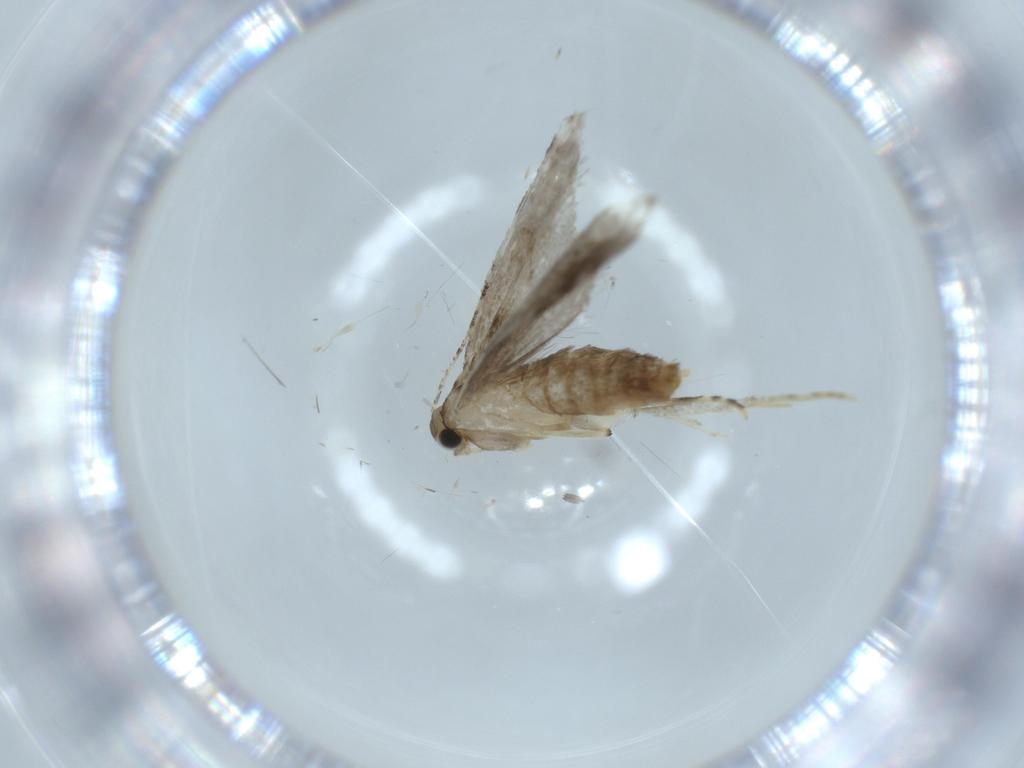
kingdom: Animalia
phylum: Arthropoda
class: Insecta
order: Lepidoptera
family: Tineidae
